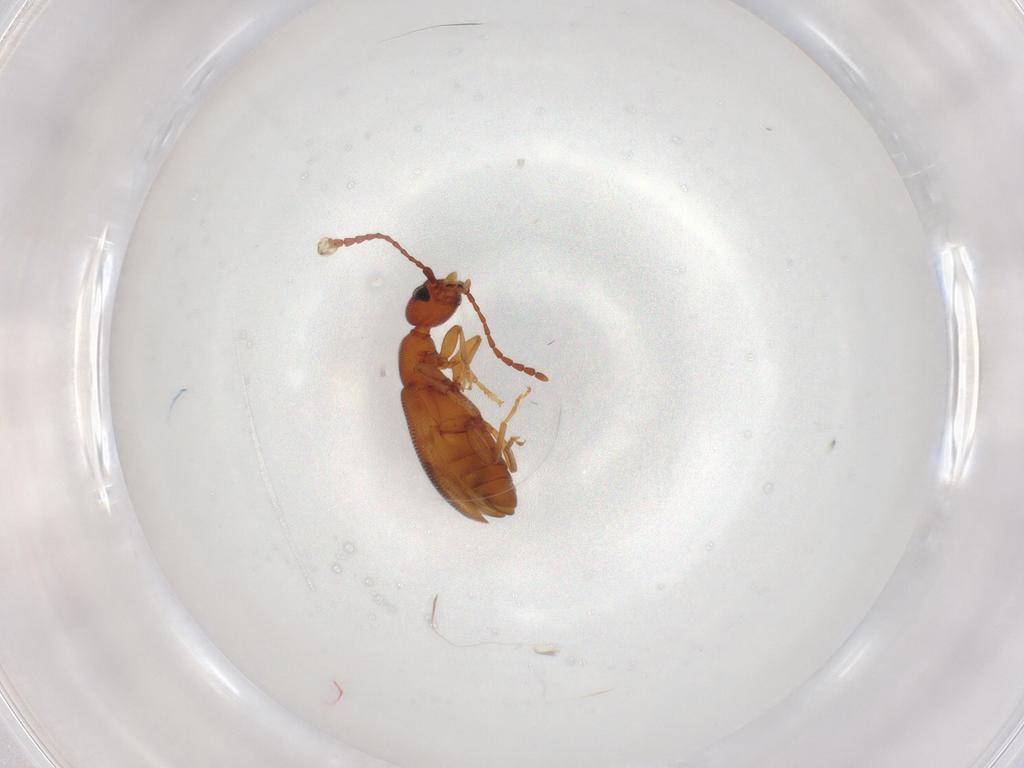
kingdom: Animalia
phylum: Arthropoda
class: Insecta
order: Coleoptera
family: Anthicidae
